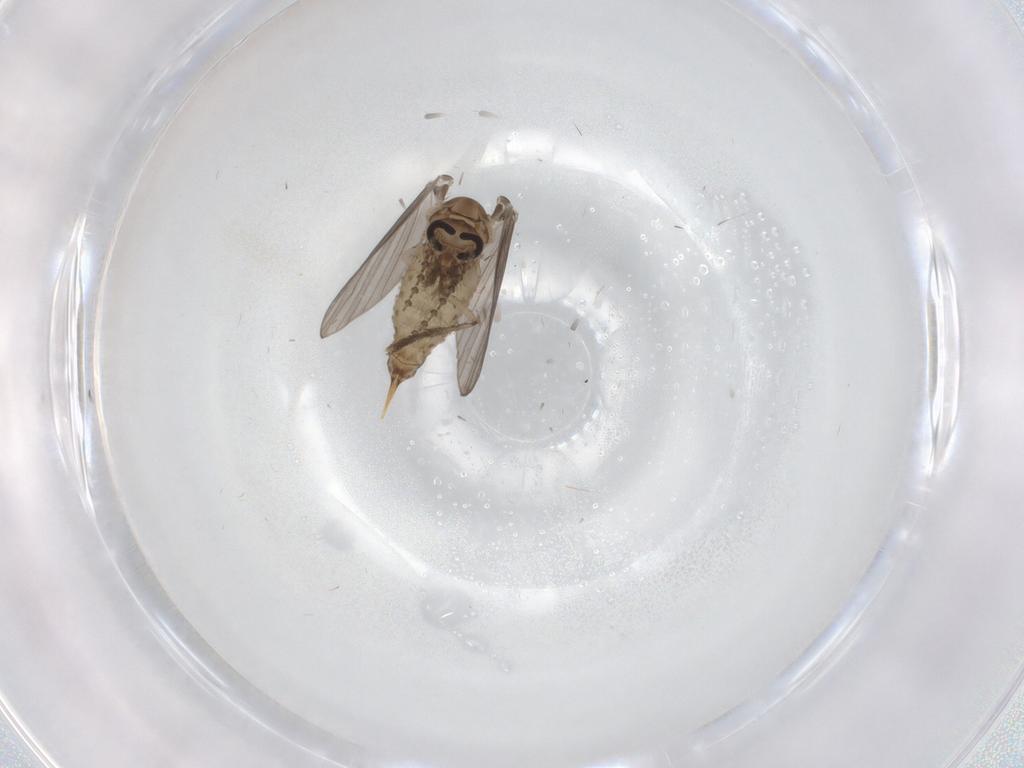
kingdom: Animalia
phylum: Arthropoda
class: Insecta
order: Diptera
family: Psychodidae
